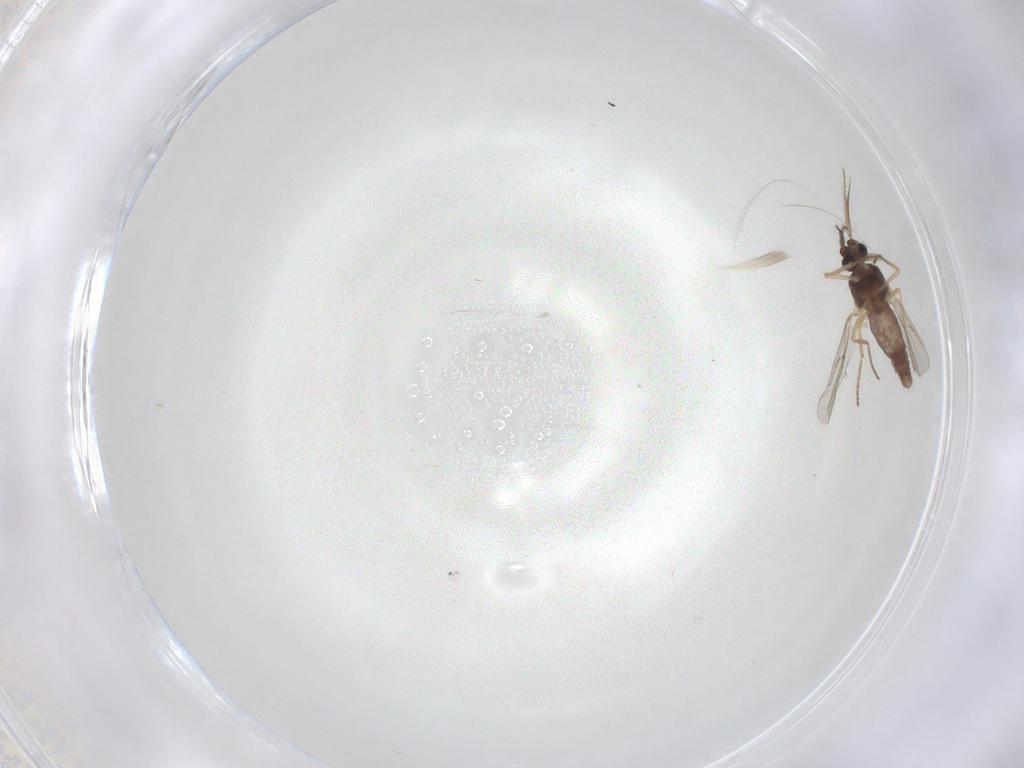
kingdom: Animalia
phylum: Arthropoda
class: Insecta
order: Diptera
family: Ceratopogonidae
